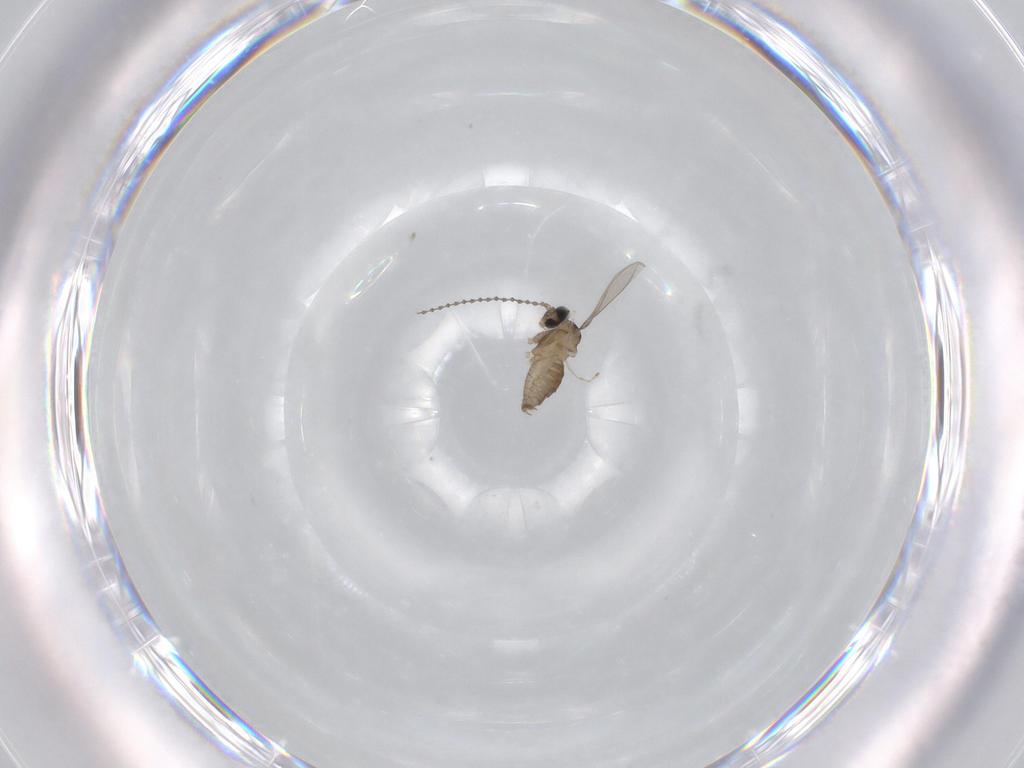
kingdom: Animalia
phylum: Arthropoda
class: Insecta
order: Diptera
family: Cecidomyiidae
